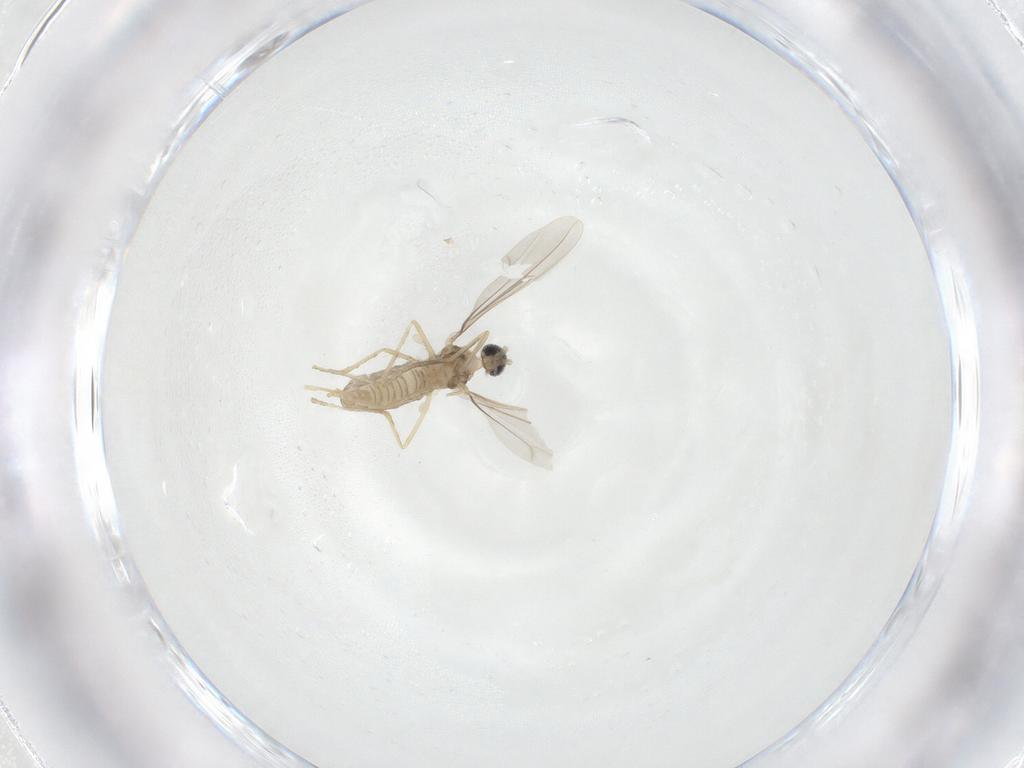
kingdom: Animalia
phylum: Arthropoda
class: Insecta
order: Diptera
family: Cecidomyiidae
